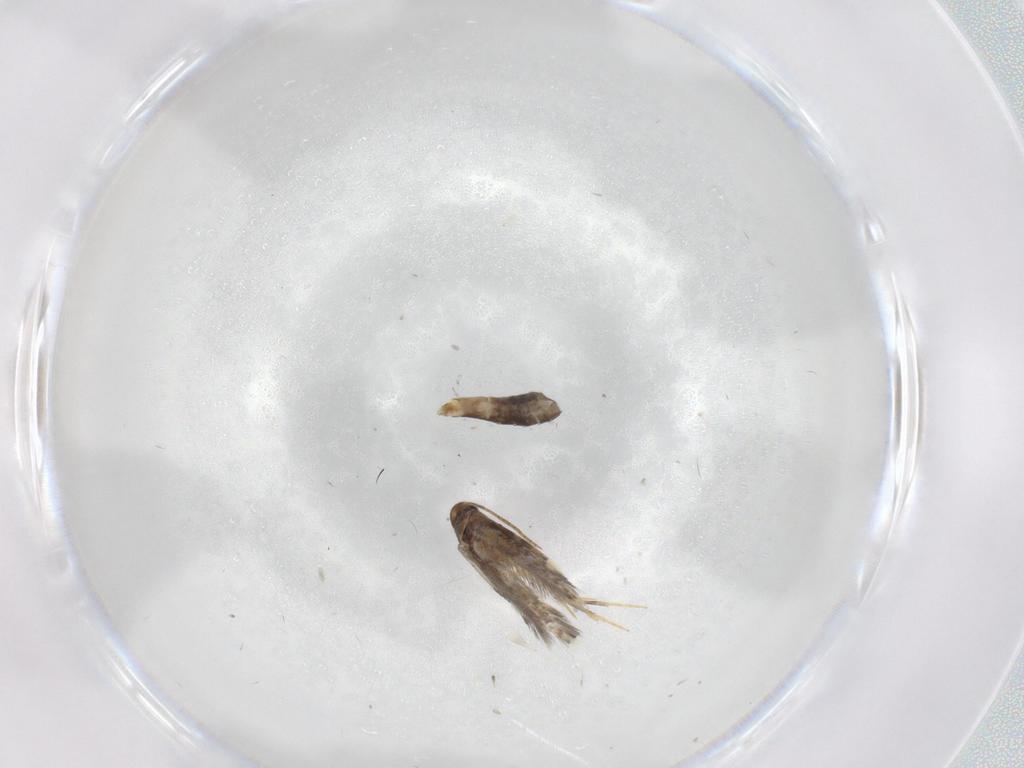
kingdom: Animalia
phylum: Arthropoda
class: Insecta
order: Lepidoptera
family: Heliozelidae
